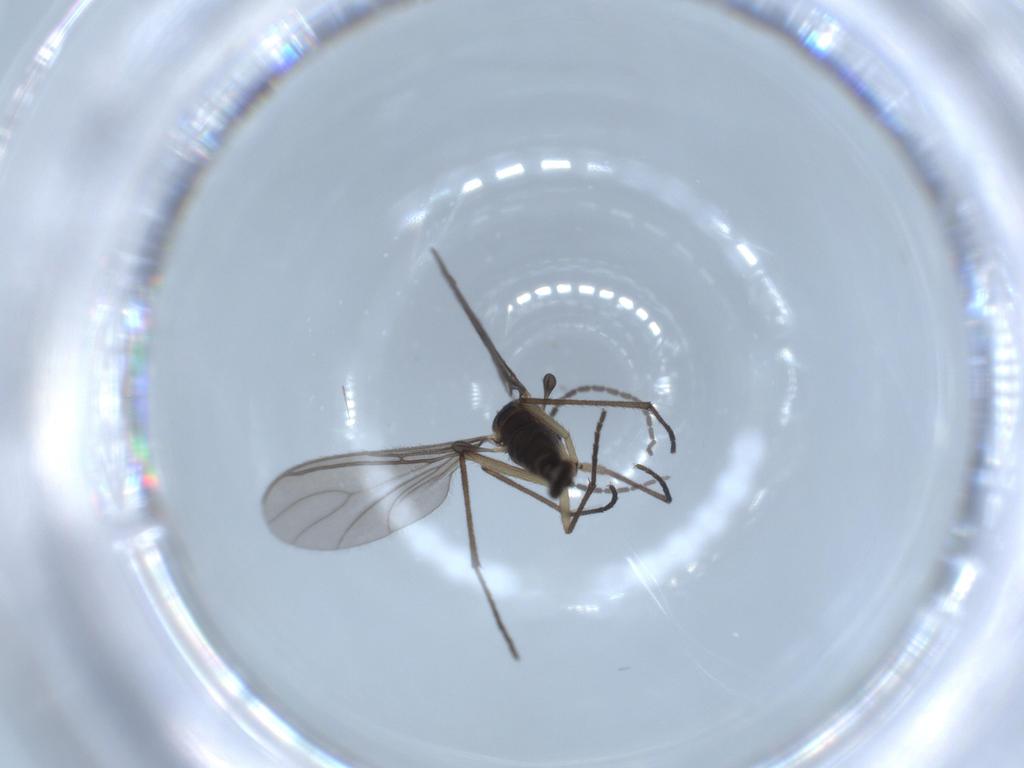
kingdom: Animalia
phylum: Arthropoda
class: Insecta
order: Diptera
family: Sciaridae
